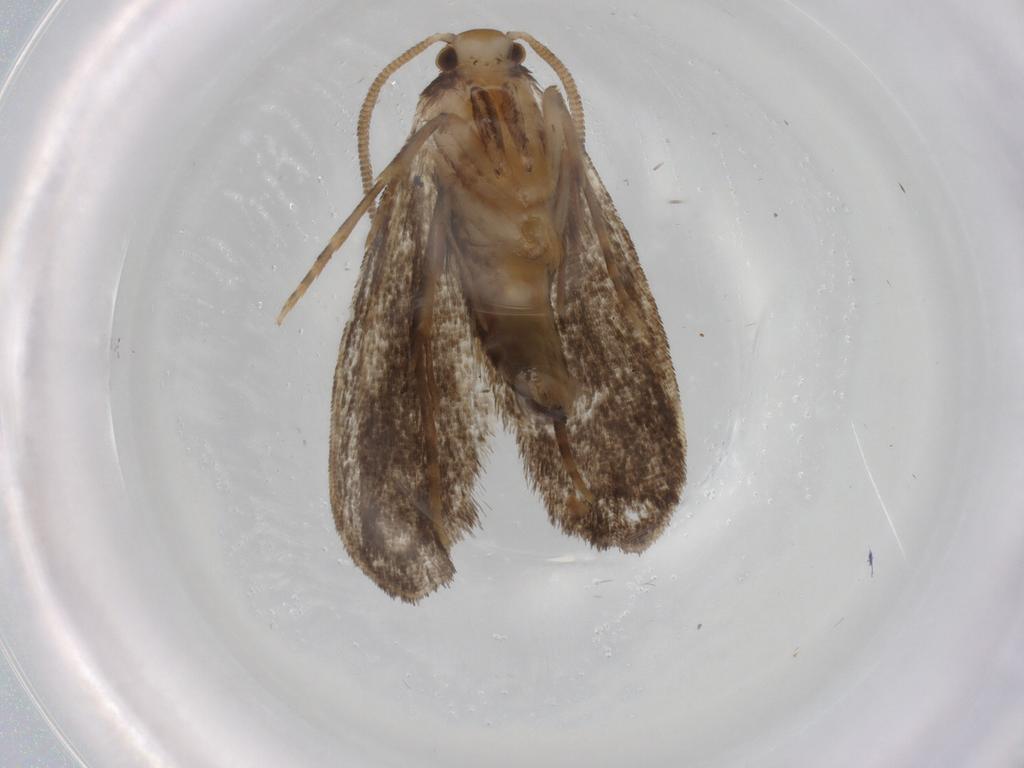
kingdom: Animalia
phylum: Arthropoda
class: Insecta
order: Lepidoptera
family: Dryadaulidae
